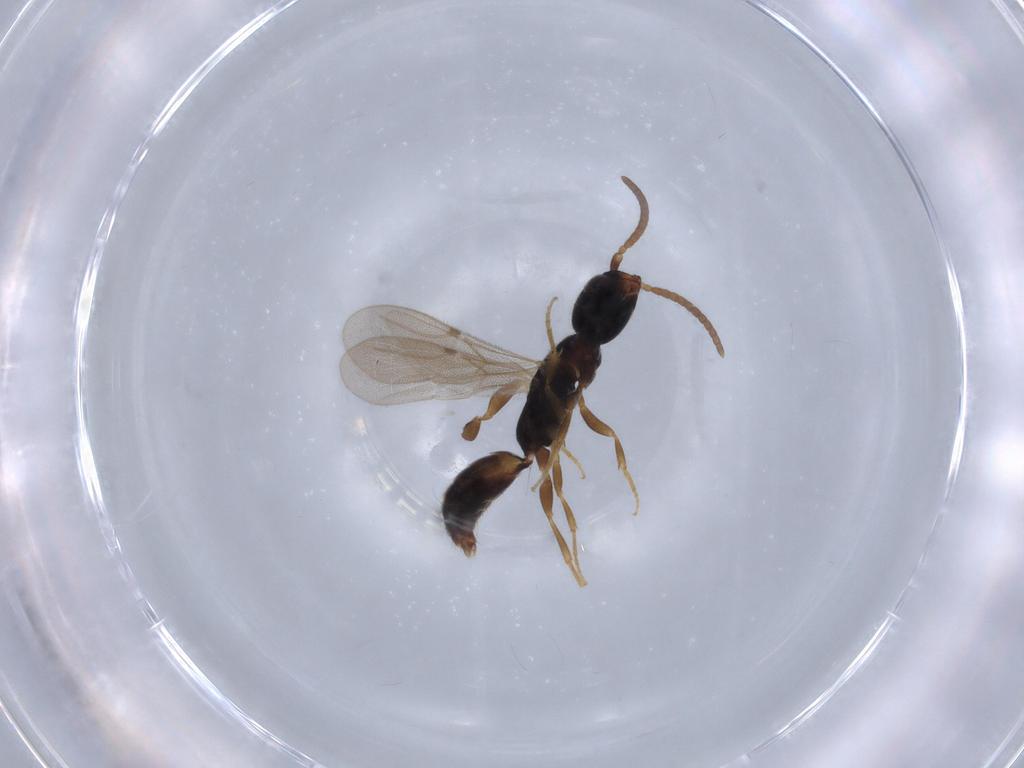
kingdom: Animalia
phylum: Arthropoda
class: Insecta
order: Hymenoptera
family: Bethylidae
